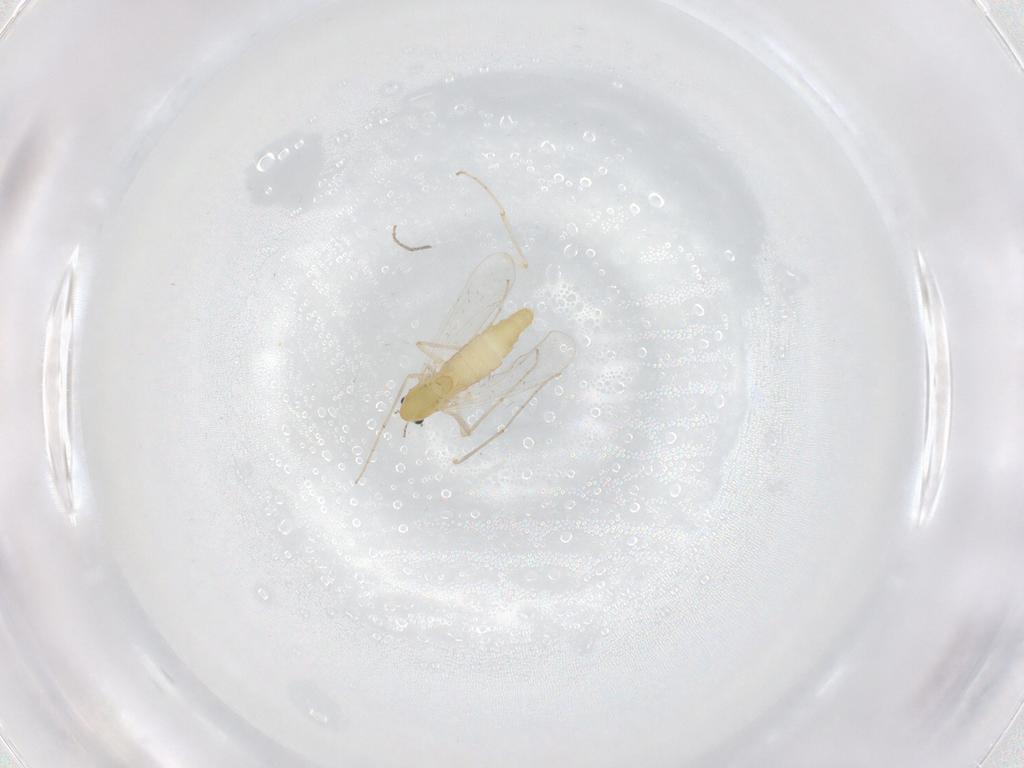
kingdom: Animalia
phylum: Arthropoda
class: Insecta
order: Diptera
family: Chironomidae
